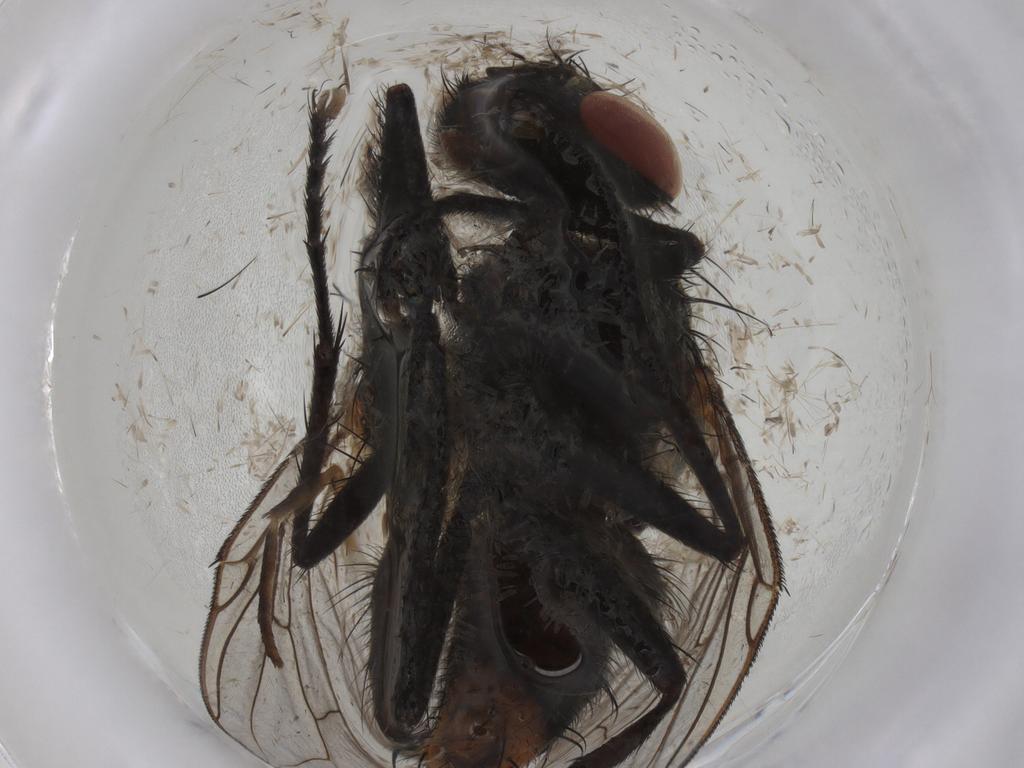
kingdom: Animalia
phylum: Arthropoda
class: Insecta
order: Diptera
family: Sarcophagidae
